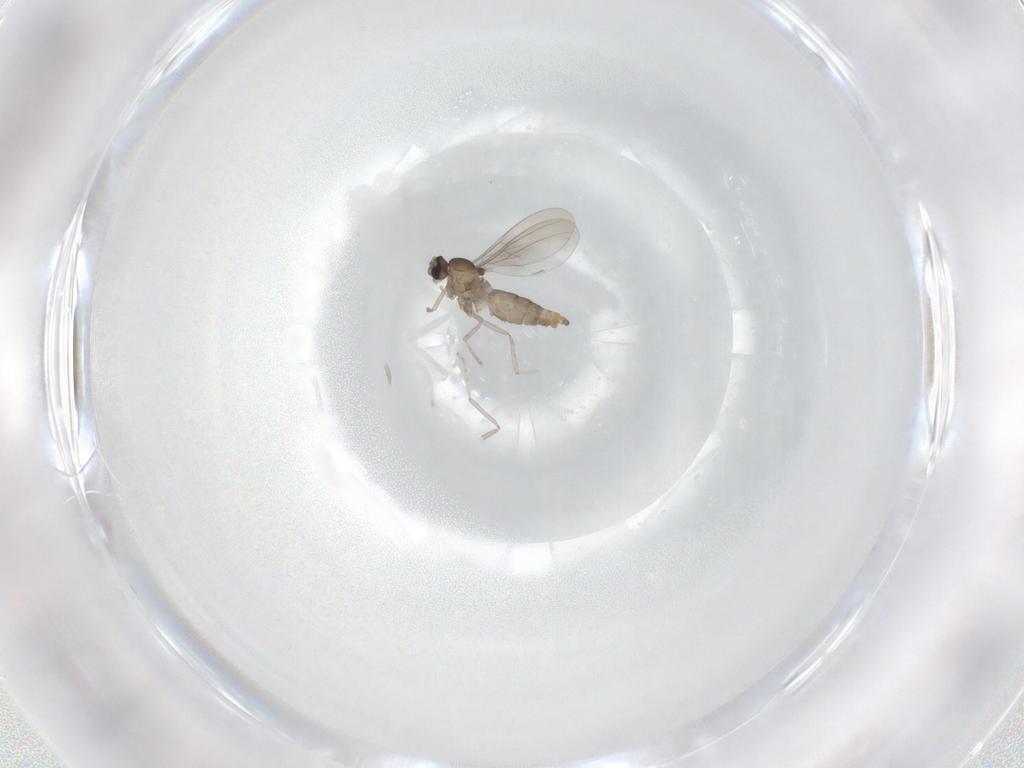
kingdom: Animalia
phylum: Arthropoda
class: Insecta
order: Diptera
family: Cecidomyiidae
